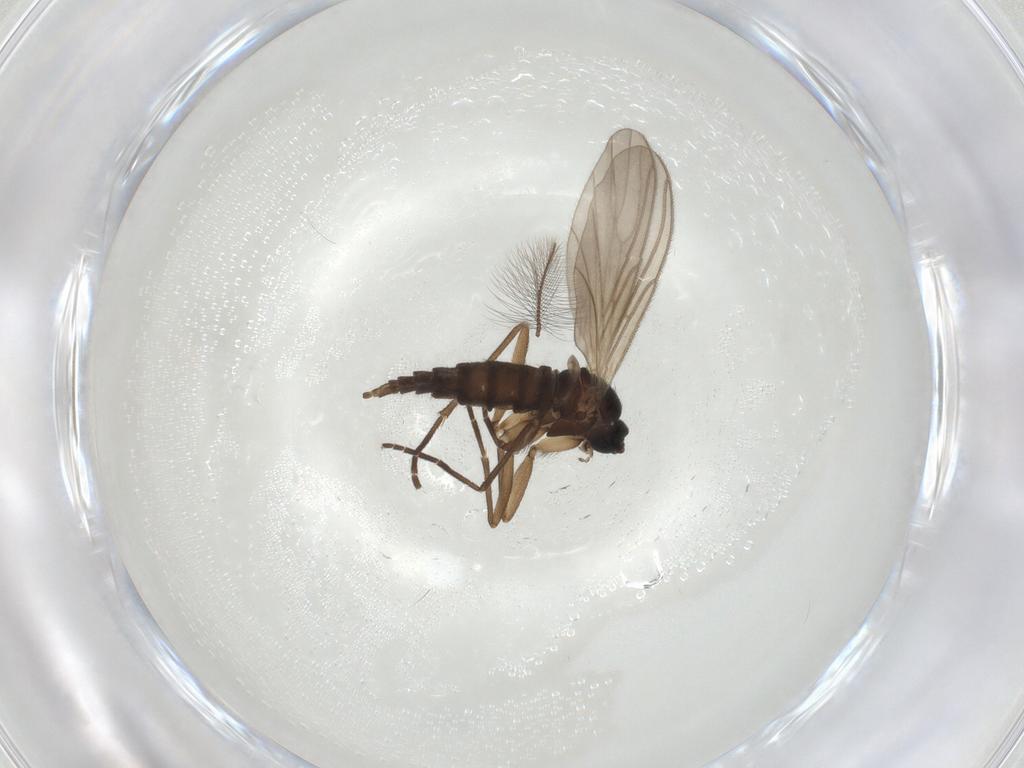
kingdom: Animalia
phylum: Arthropoda
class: Insecta
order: Diptera
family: Sciaridae
